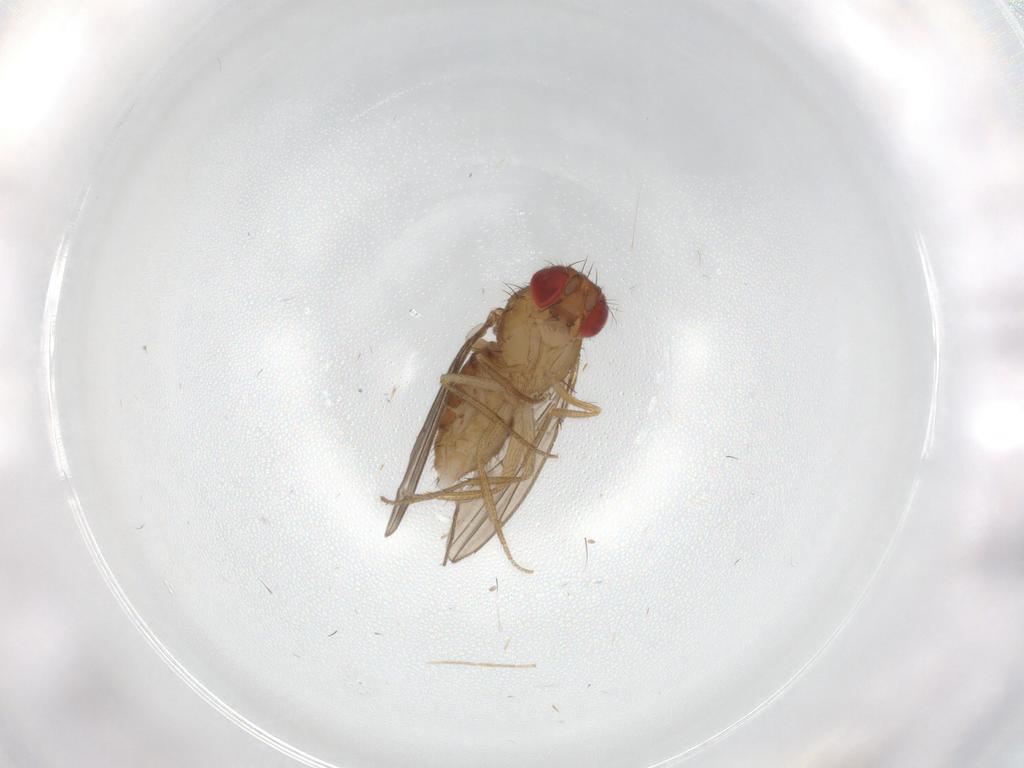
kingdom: Animalia
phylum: Arthropoda
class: Insecta
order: Diptera
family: Drosophilidae
